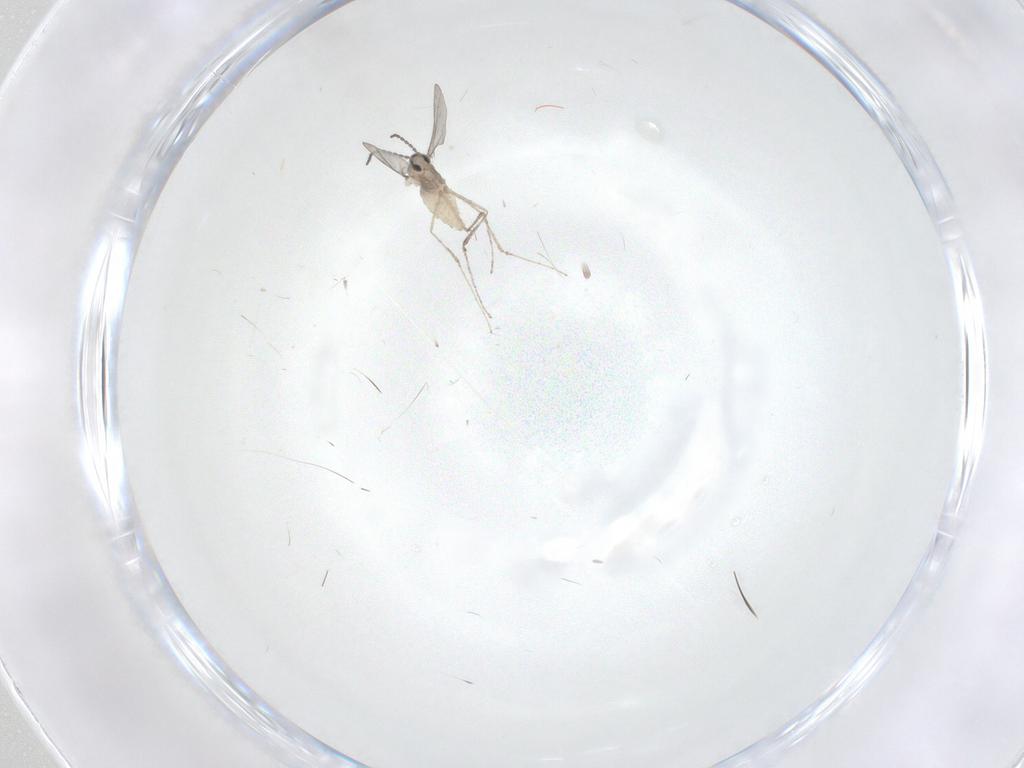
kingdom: Animalia
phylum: Arthropoda
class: Insecta
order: Diptera
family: Cecidomyiidae
